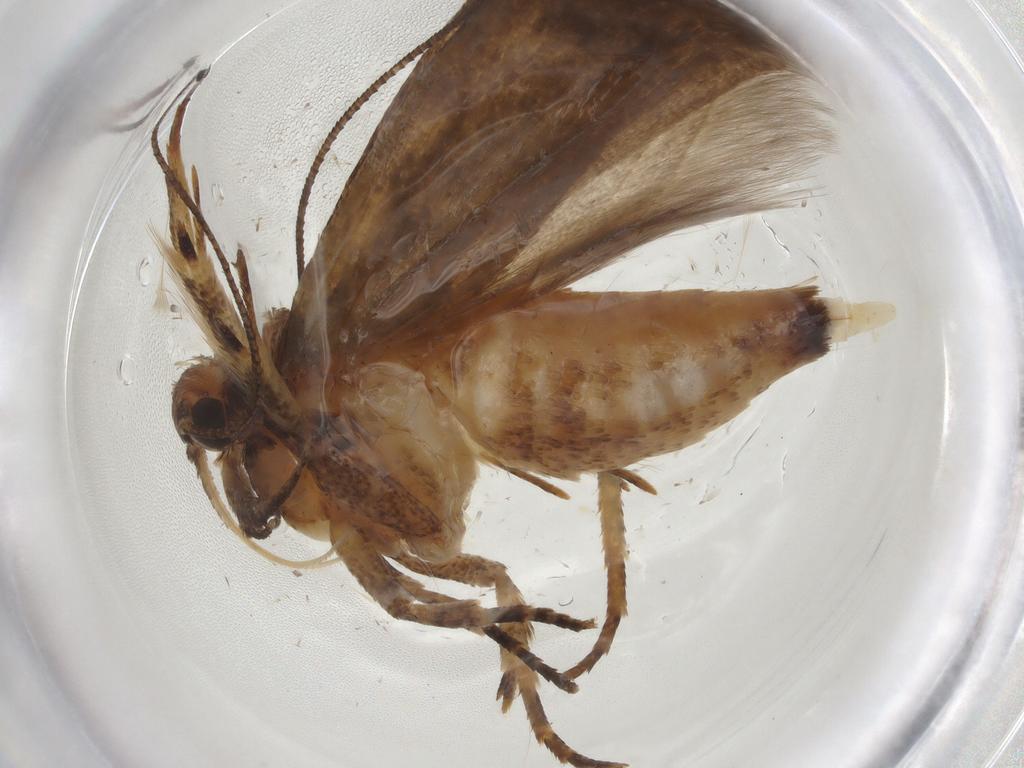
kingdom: Animalia
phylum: Arthropoda
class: Insecta
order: Lepidoptera
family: Gelechiidae
